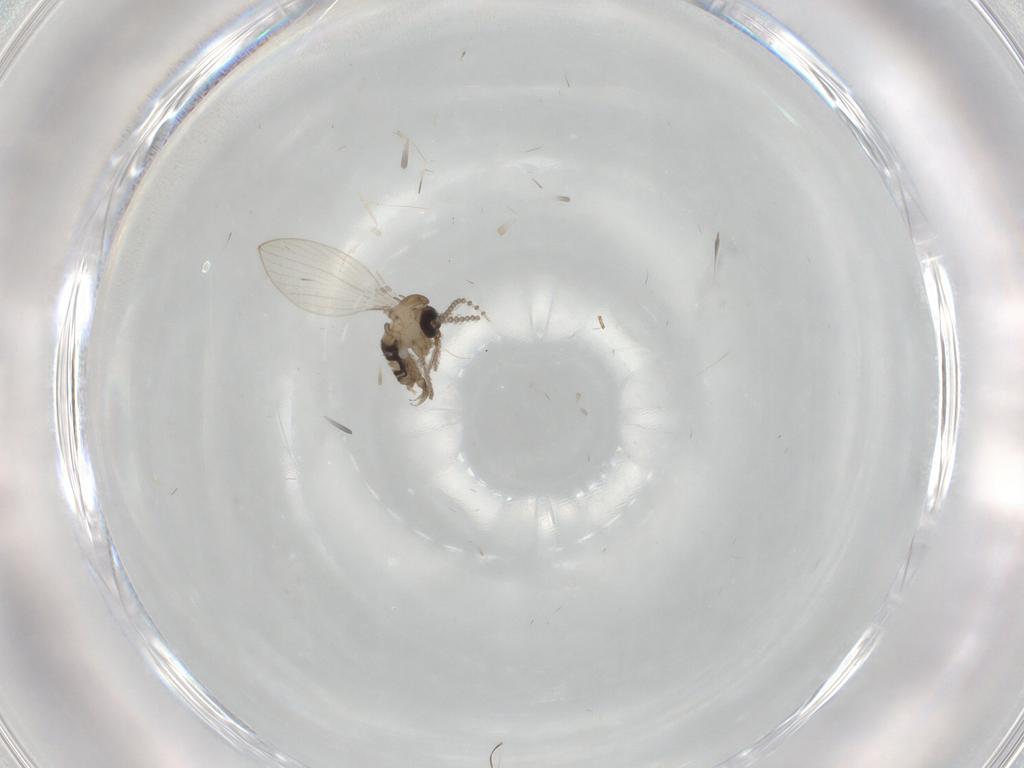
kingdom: Animalia
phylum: Arthropoda
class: Insecta
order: Diptera
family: Psychodidae
